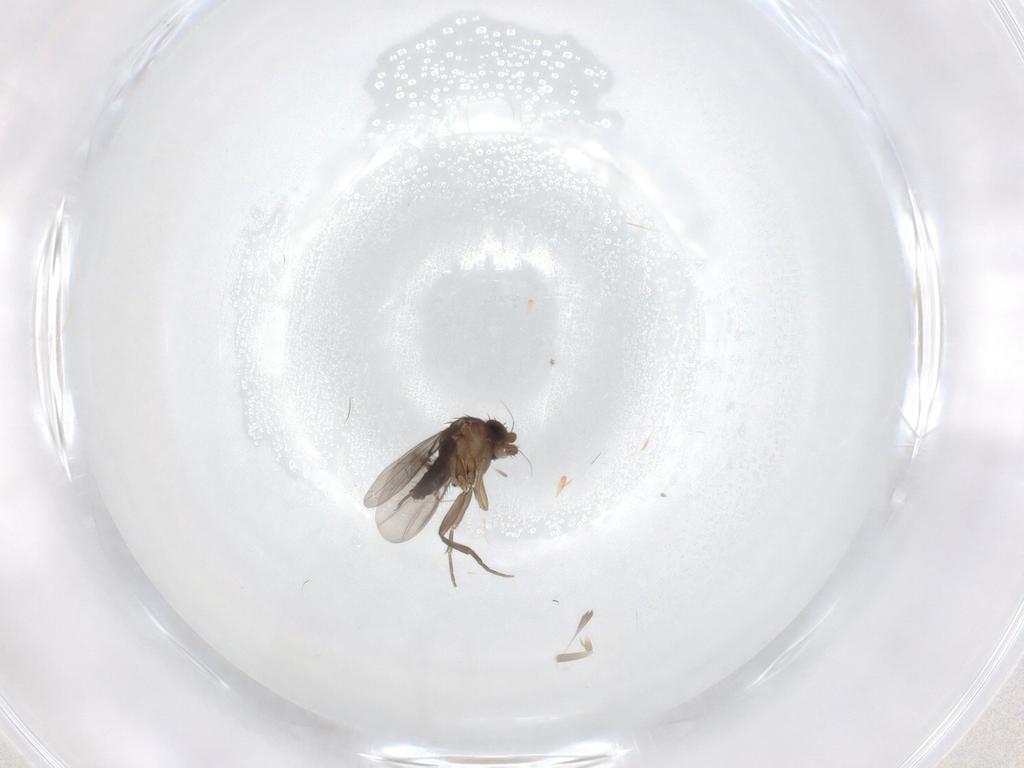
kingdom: Animalia
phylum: Arthropoda
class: Insecta
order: Diptera
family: Phoridae
